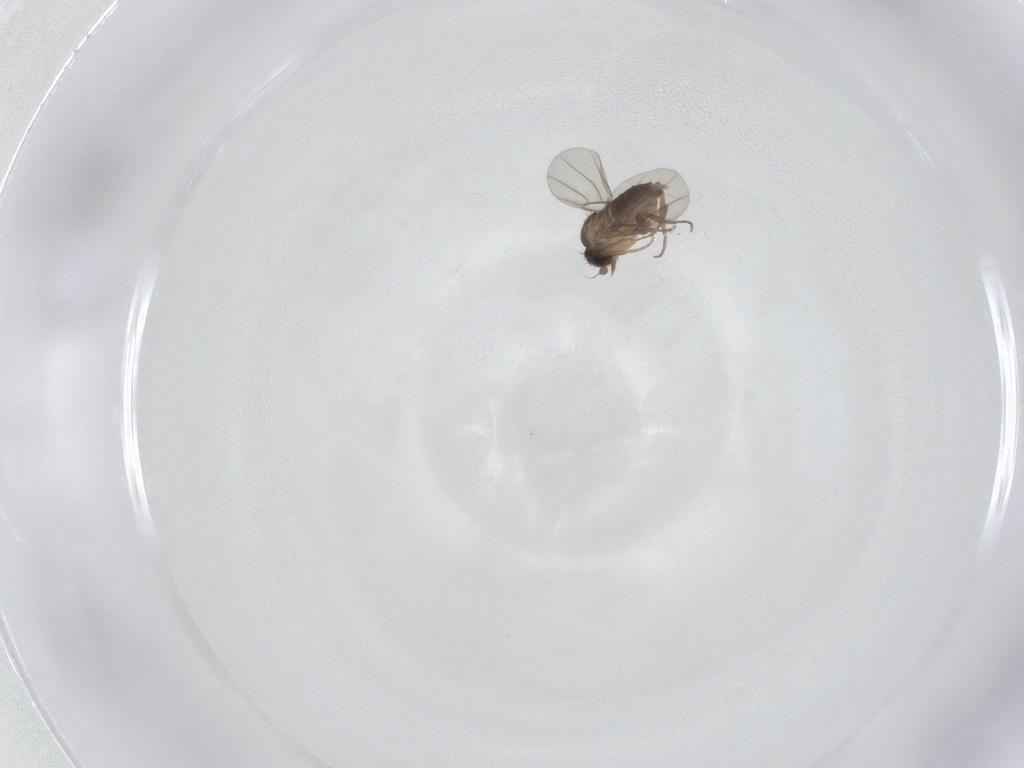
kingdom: Animalia
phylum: Arthropoda
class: Insecta
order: Diptera
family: Phoridae
